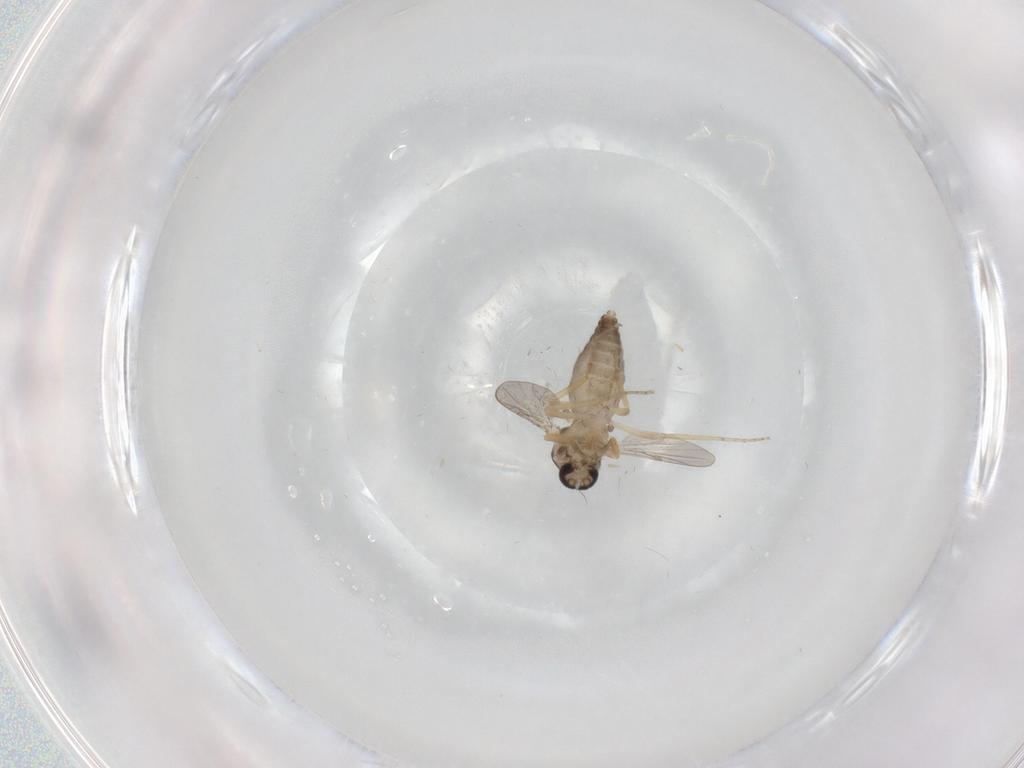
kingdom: Animalia
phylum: Arthropoda
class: Insecta
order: Diptera
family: Ceratopogonidae
